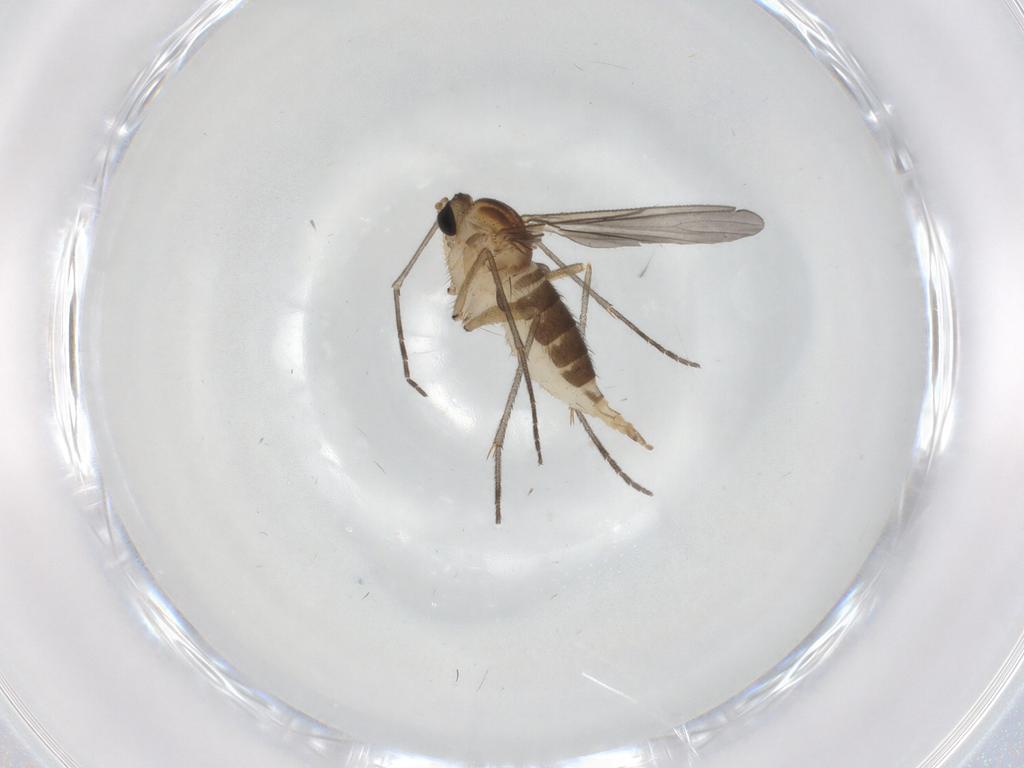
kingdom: Animalia
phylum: Arthropoda
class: Insecta
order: Diptera
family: Sciaridae
